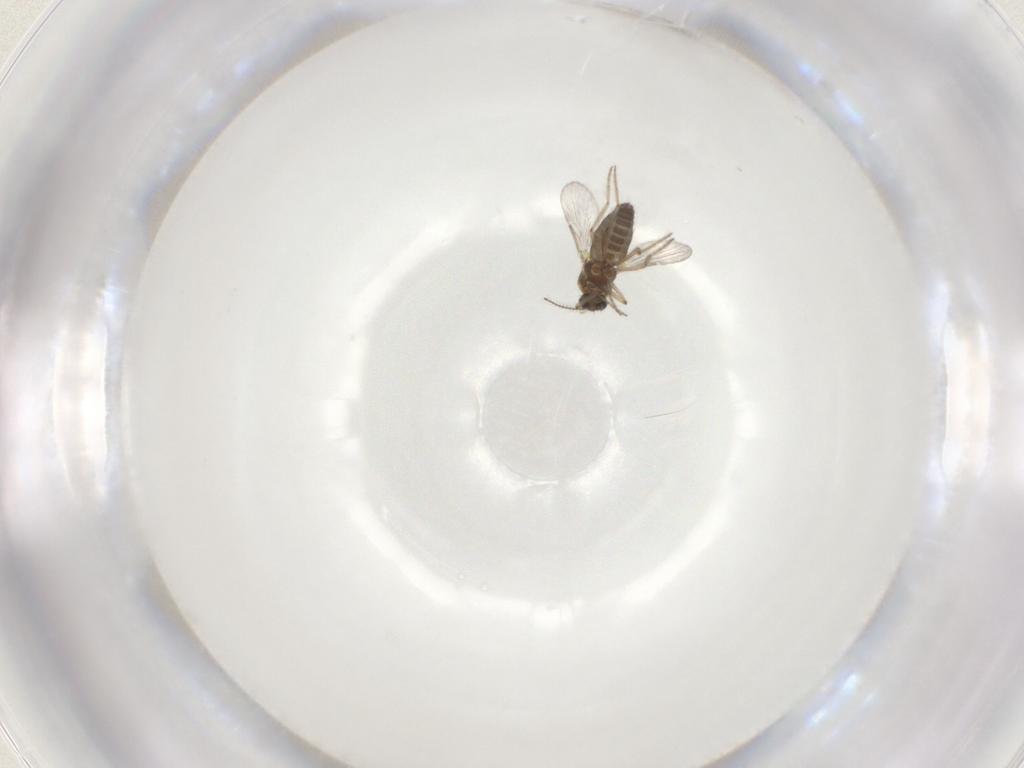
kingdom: Animalia
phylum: Arthropoda
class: Insecta
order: Diptera
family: Ceratopogonidae
